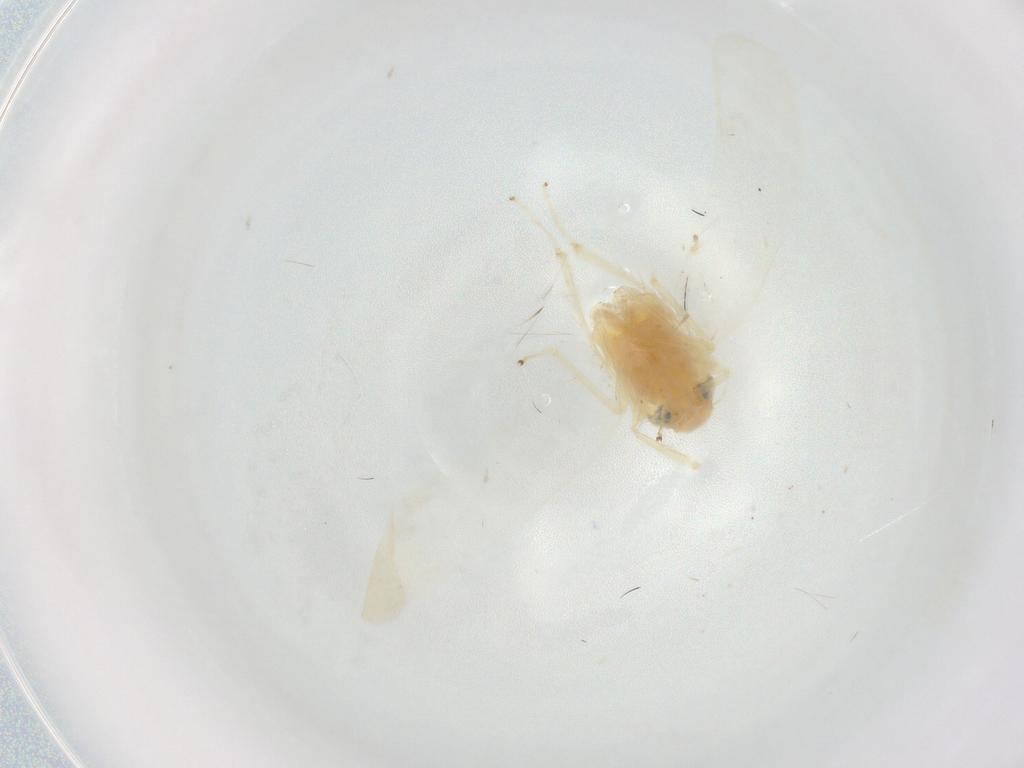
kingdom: Animalia
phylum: Arthropoda
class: Insecta
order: Hemiptera
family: Cicadellidae
